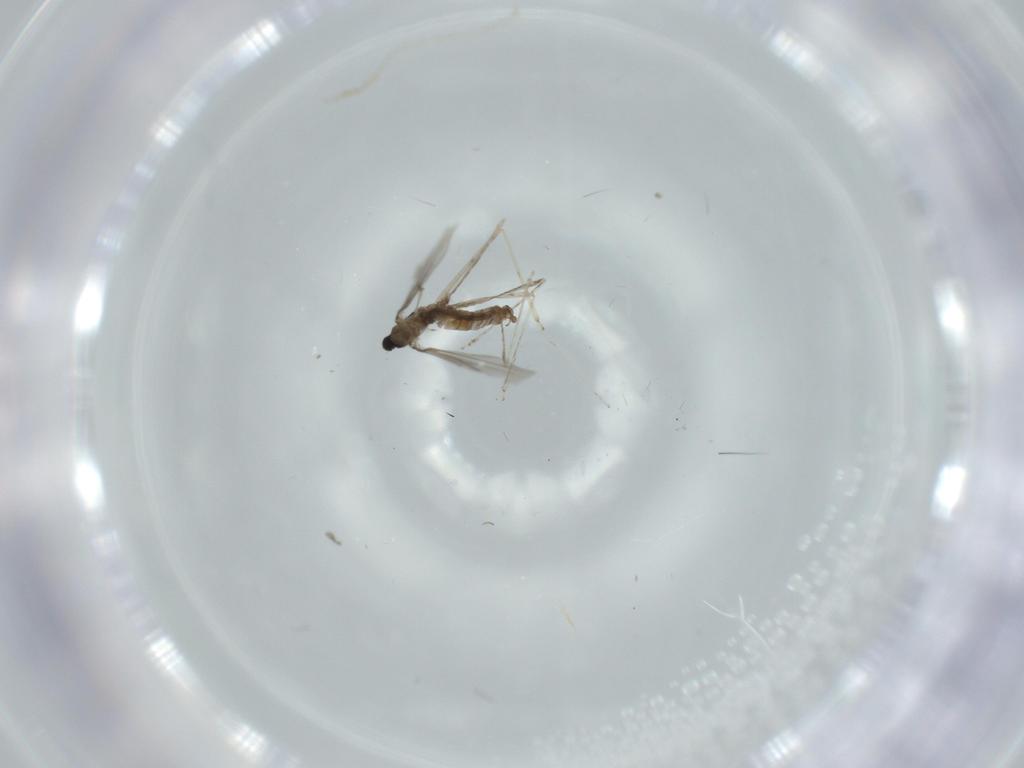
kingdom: Animalia
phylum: Arthropoda
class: Insecta
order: Diptera
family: Cecidomyiidae
